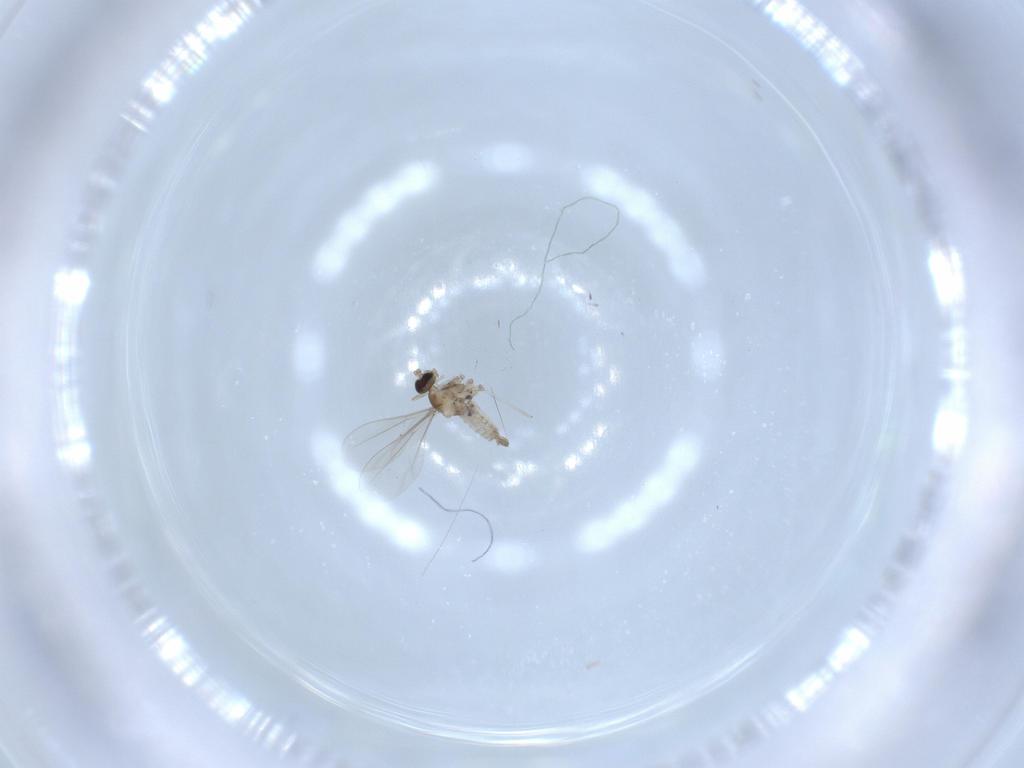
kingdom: Animalia
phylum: Arthropoda
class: Insecta
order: Diptera
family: Cecidomyiidae
